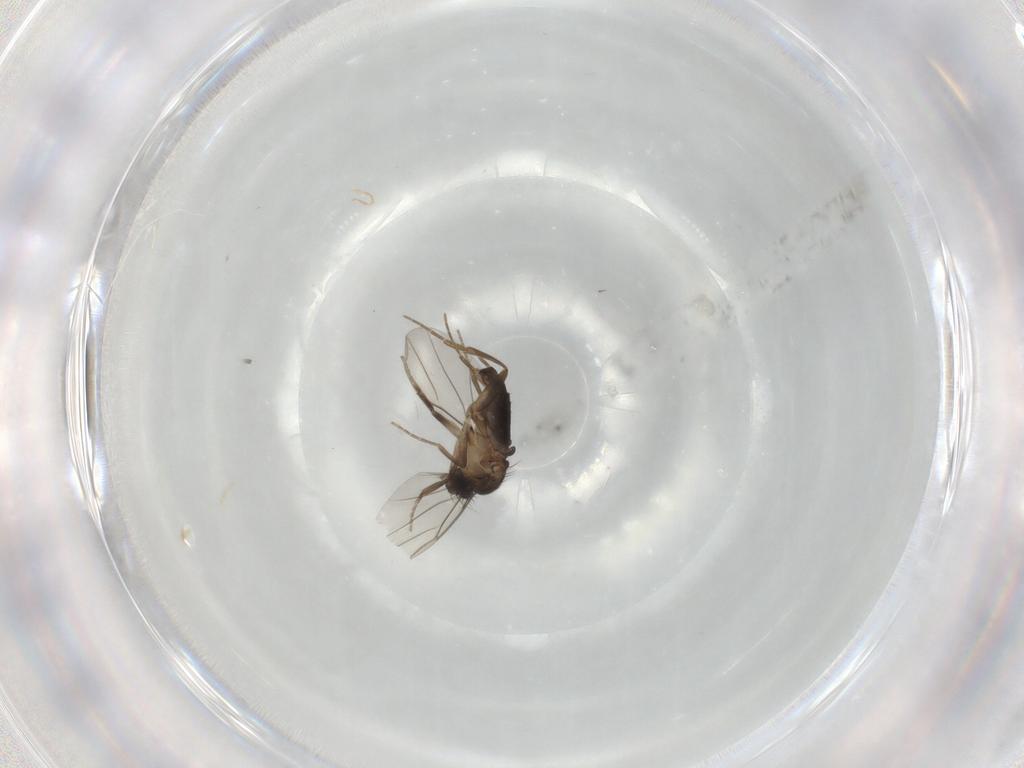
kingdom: Animalia
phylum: Arthropoda
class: Insecta
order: Diptera
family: Phoridae
